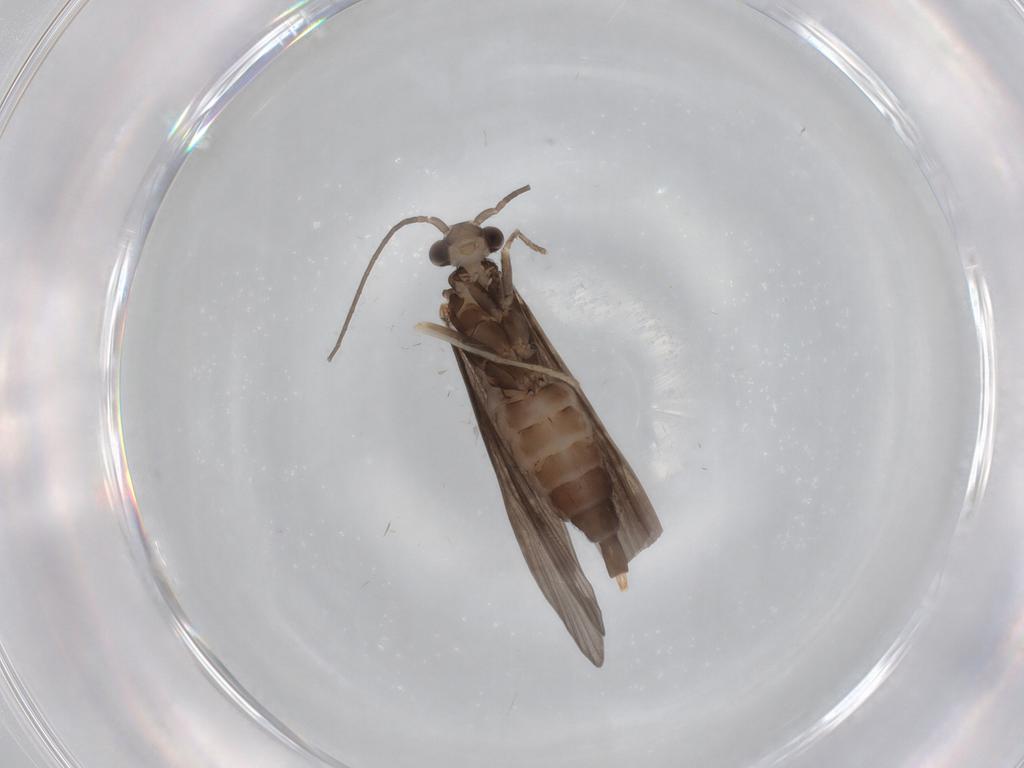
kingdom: Animalia
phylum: Arthropoda
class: Insecta
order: Trichoptera
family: Xiphocentronidae
